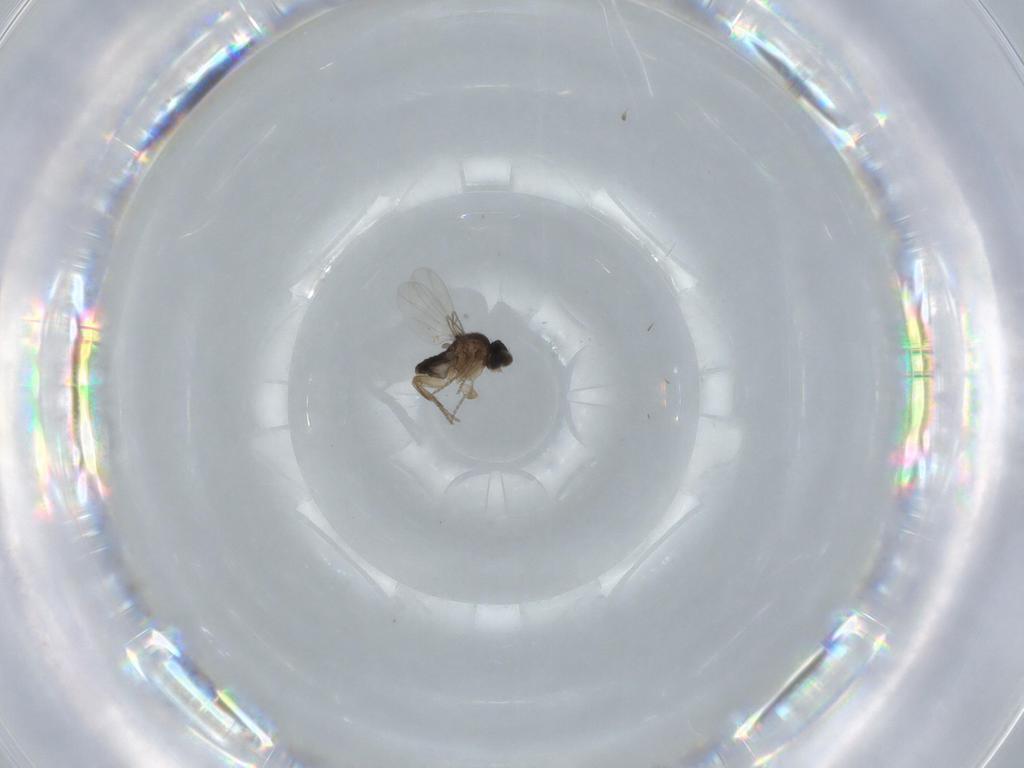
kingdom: Animalia
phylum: Arthropoda
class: Insecta
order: Diptera
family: Phoridae
